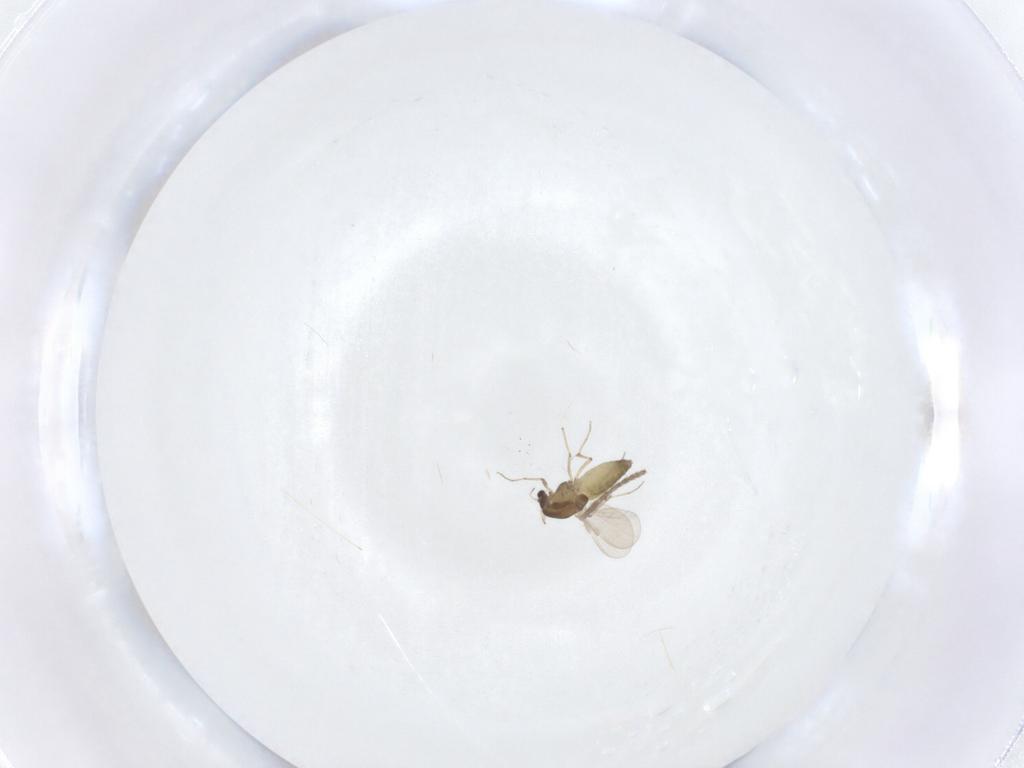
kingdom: Animalia
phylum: Arthropoda
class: Insecta
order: Diptera
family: Chironomidae
